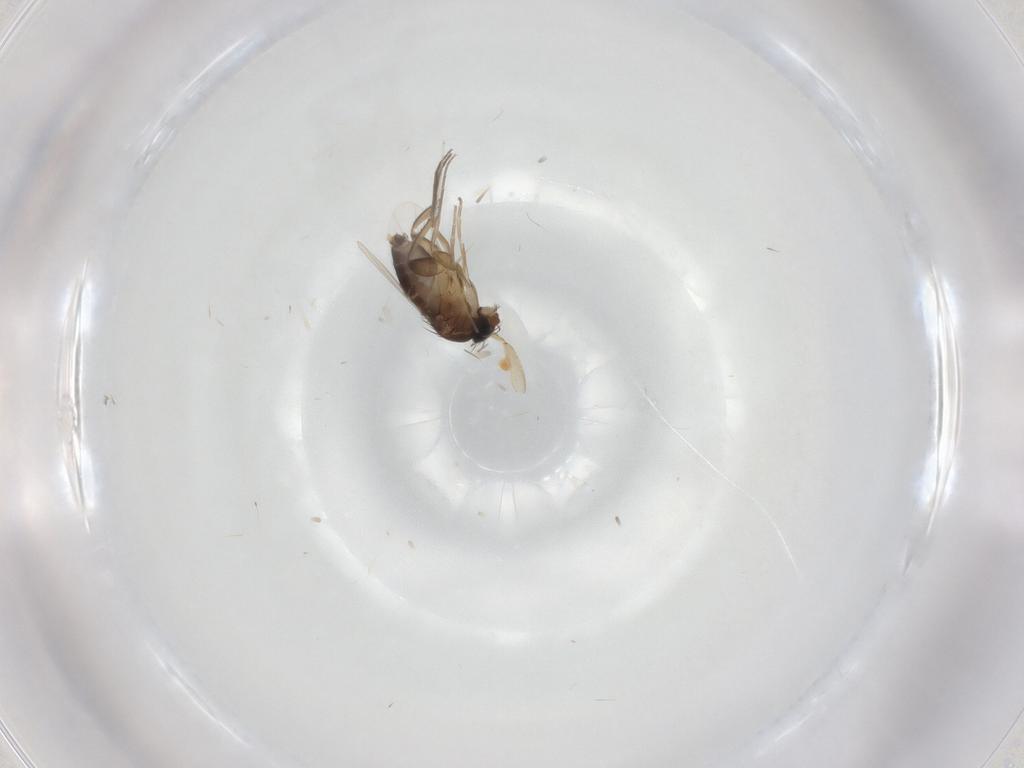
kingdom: Animalia
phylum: Arthropoda
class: Insecta
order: Diptera
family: Phoridae
